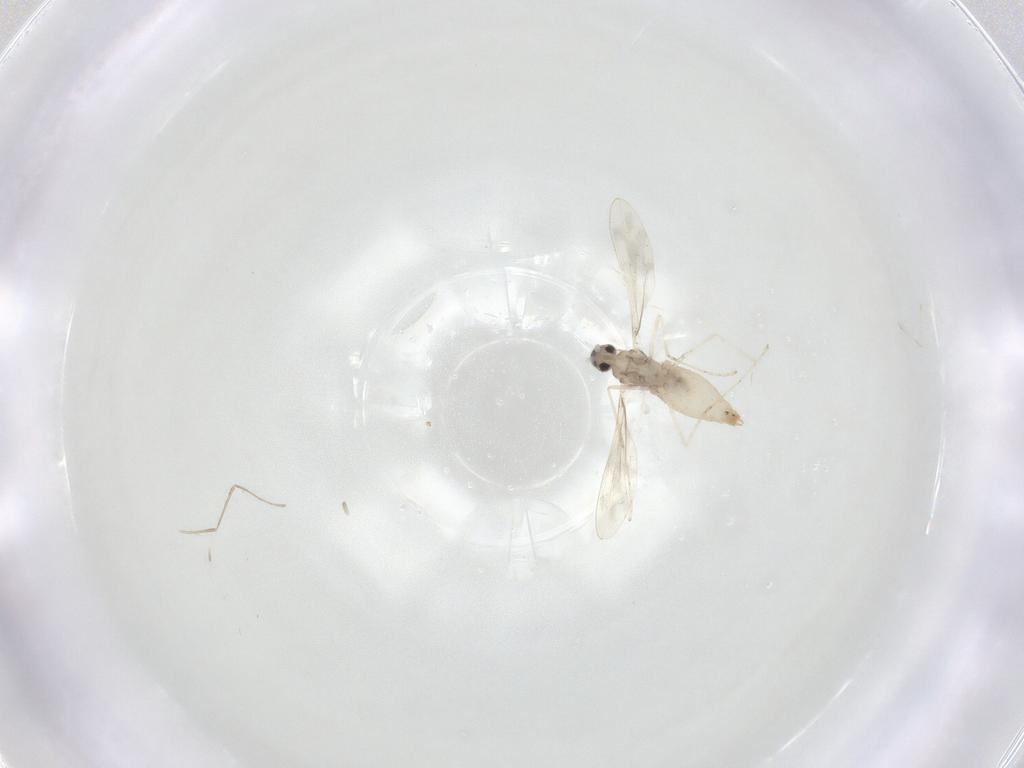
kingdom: Animalia
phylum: Arthropoda
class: Insecta
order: Diptera
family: Cecidomyiidae
